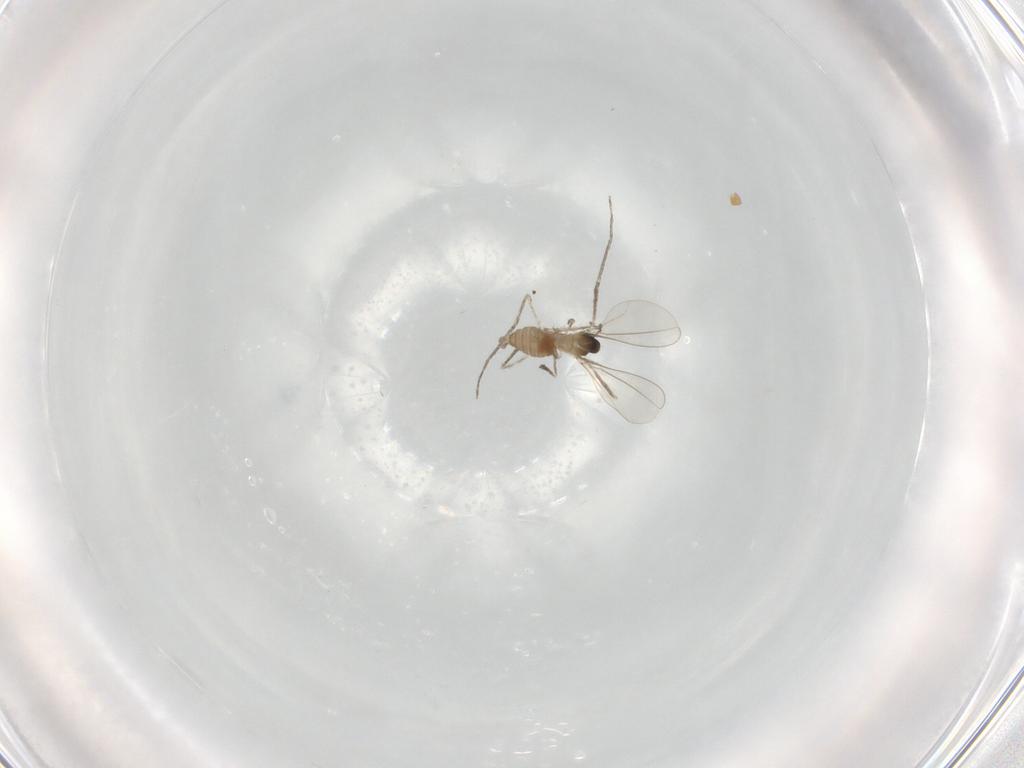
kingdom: Animalia
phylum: Arthropoda
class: Insecta
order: Diptera
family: Cecidomyiidae
